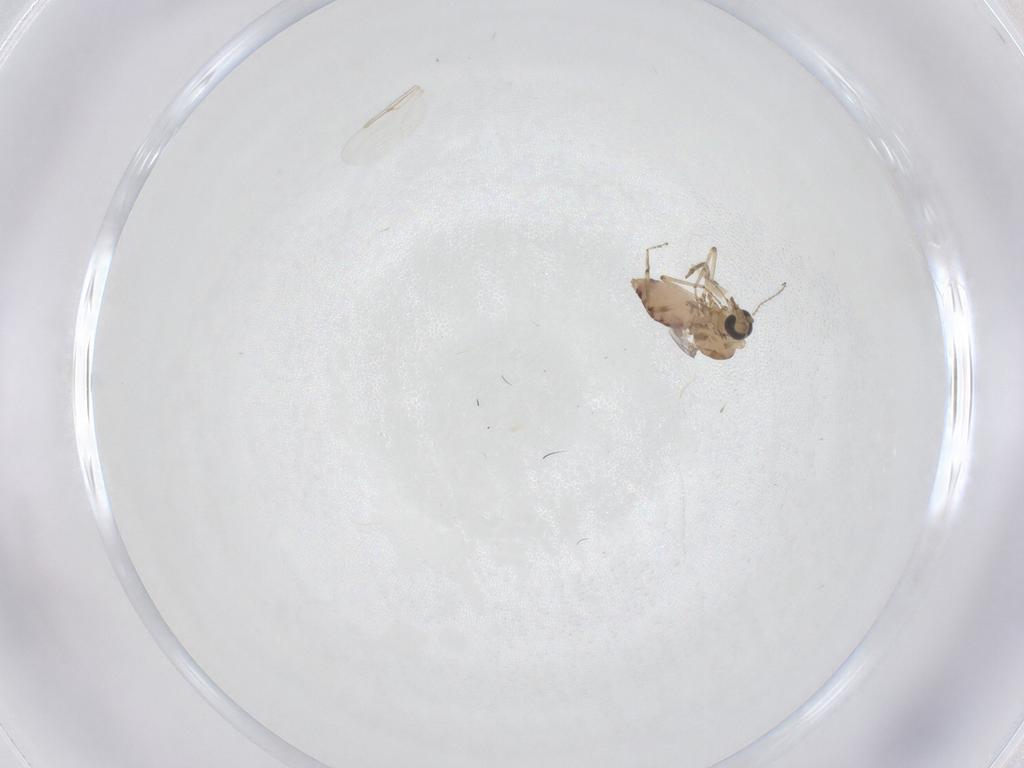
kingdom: Animalia
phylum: Arthropoda
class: Insecta
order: Diptera
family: Ceratopogonidae
